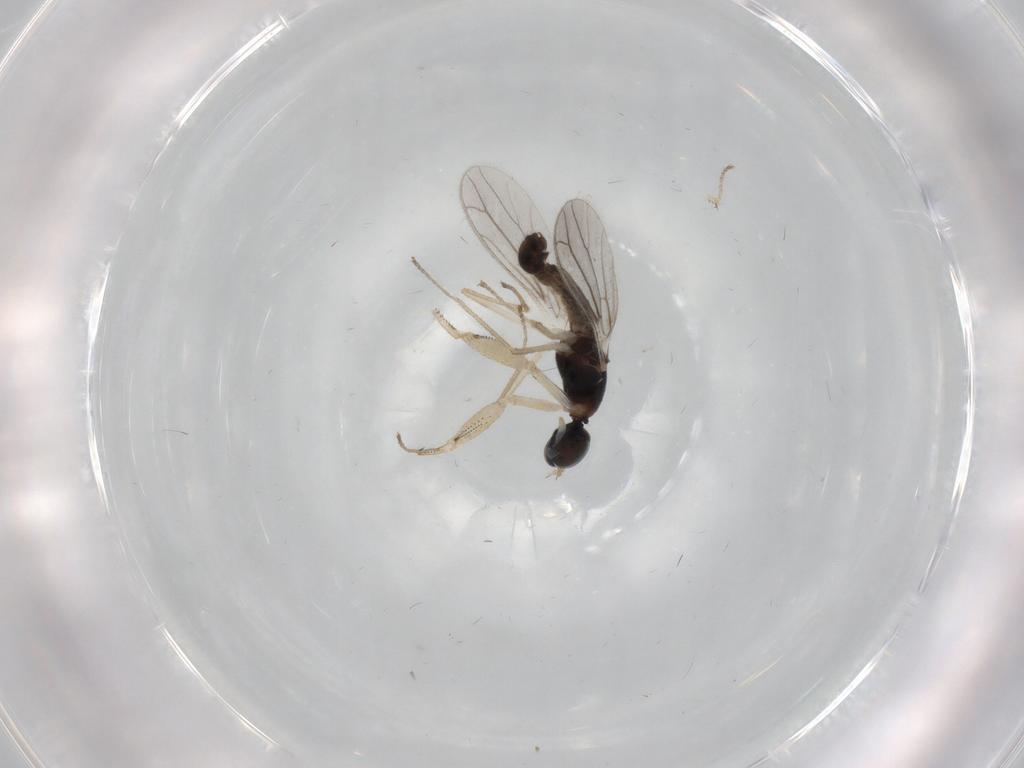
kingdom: Animalia
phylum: Arthropoda
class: Insecta
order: Diptera
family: Empididae
